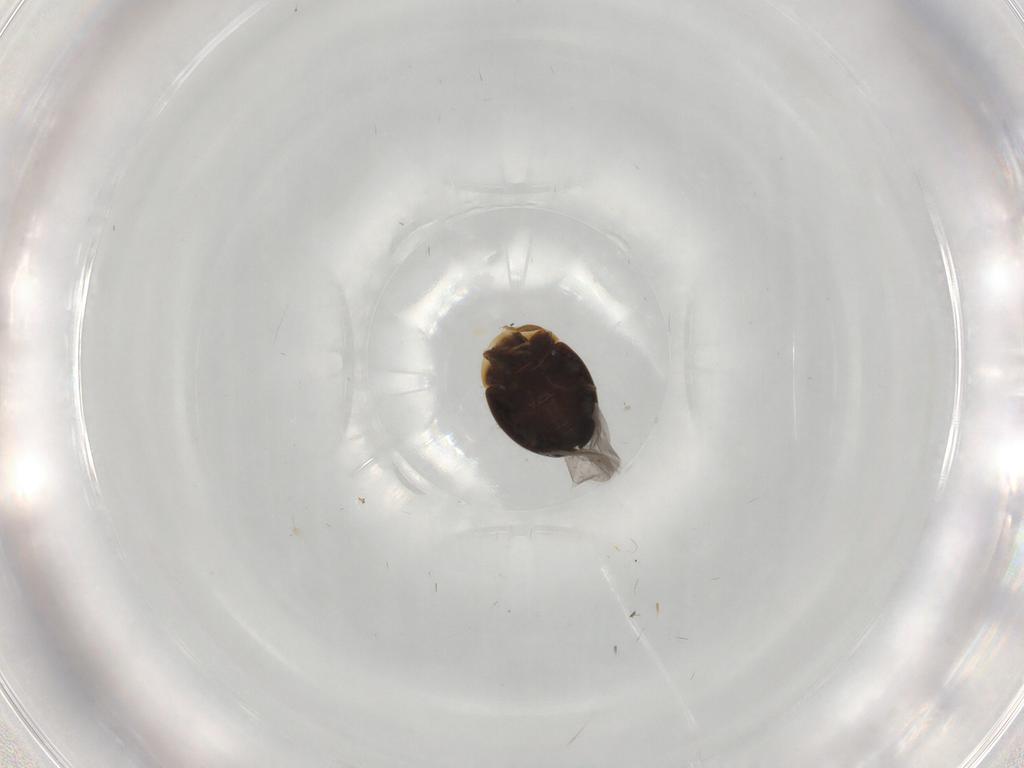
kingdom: Animalia
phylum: Arthropoda
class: Insecta
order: Coleoptera
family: Corylophidae
